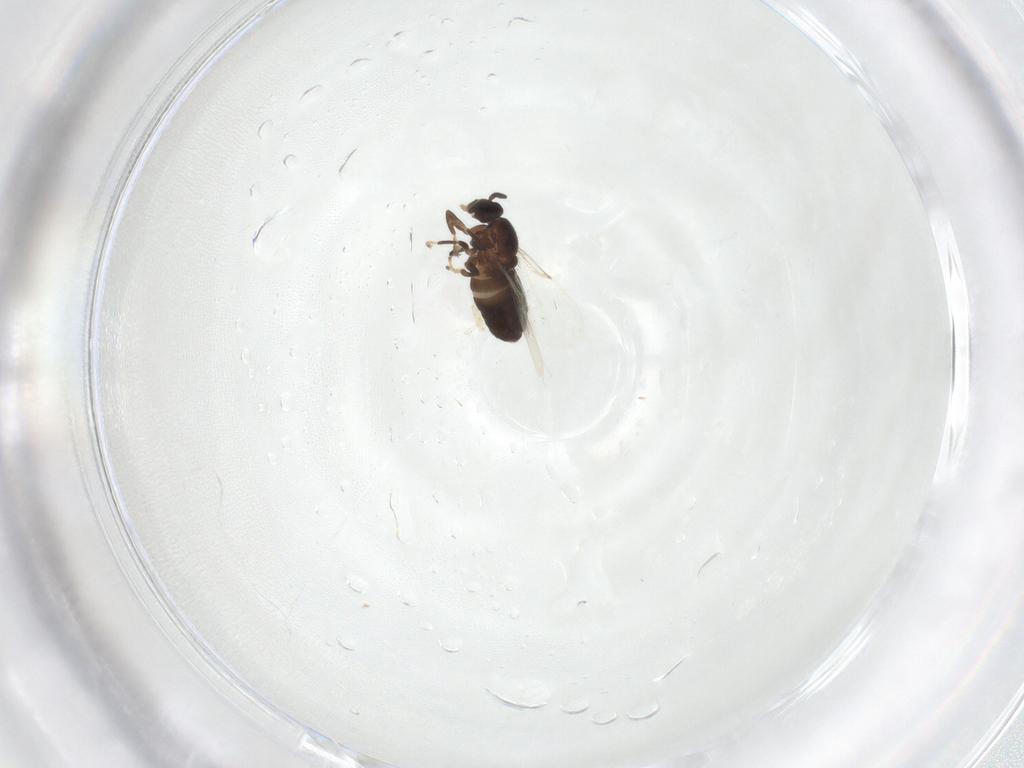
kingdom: Animalia
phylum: Arthropoda
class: Insecta
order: Diptera
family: Scatopsidae
